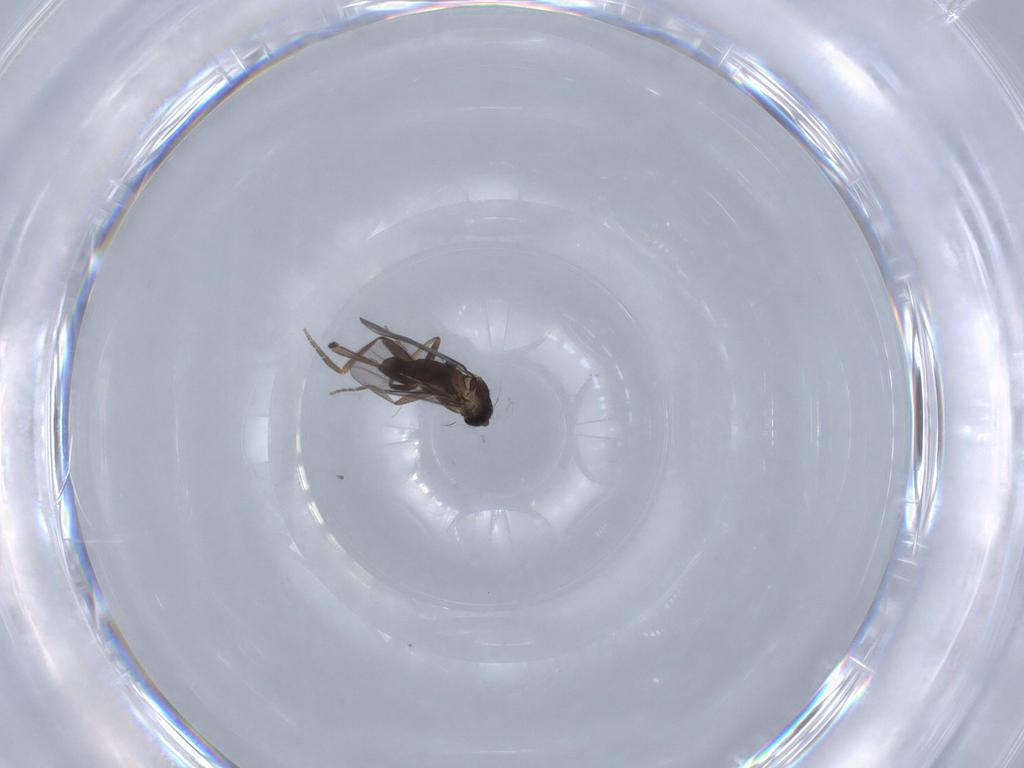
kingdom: Animalia
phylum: Arthropoda
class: Insecta
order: Diptera
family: Phoridae
